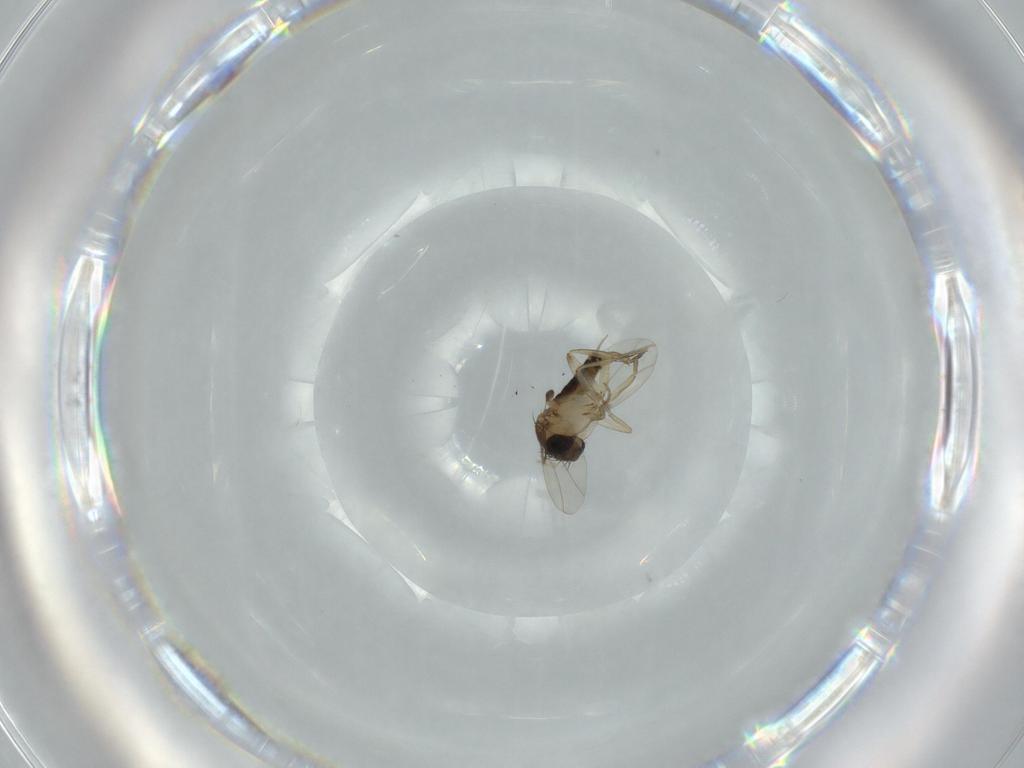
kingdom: Animalia
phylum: Arthropoda
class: Insecta
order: Diptera
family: Phoridae
